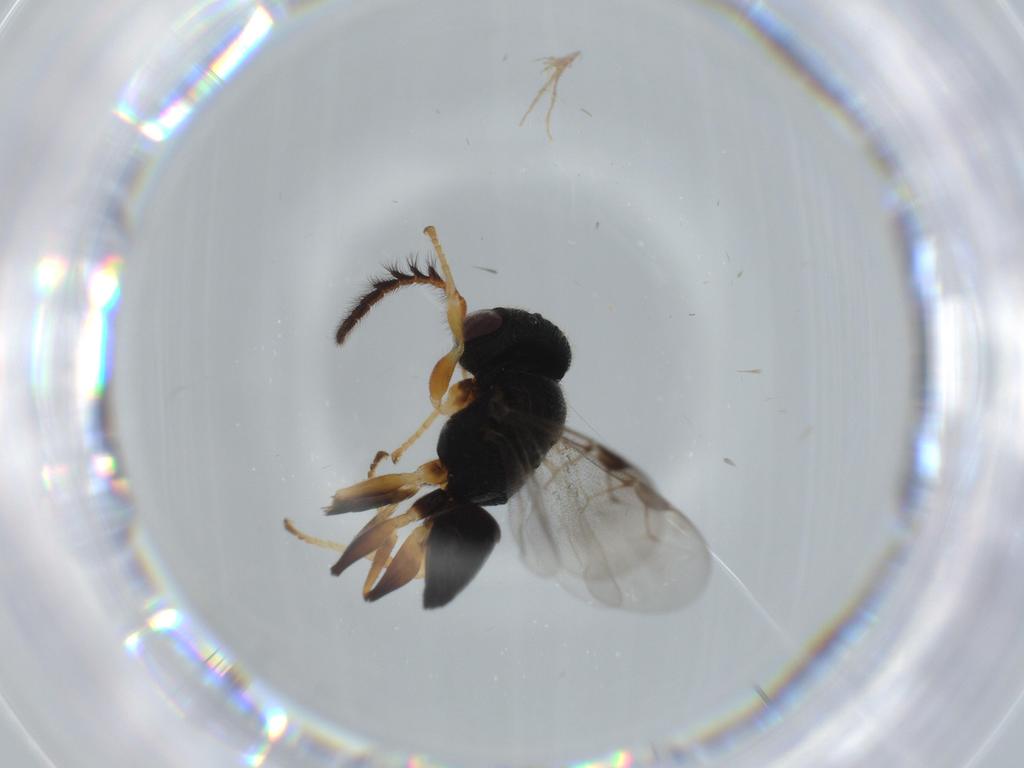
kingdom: Animalia
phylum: Arthropoda
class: Insecta
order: Hymenoptera
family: Dryinidae
